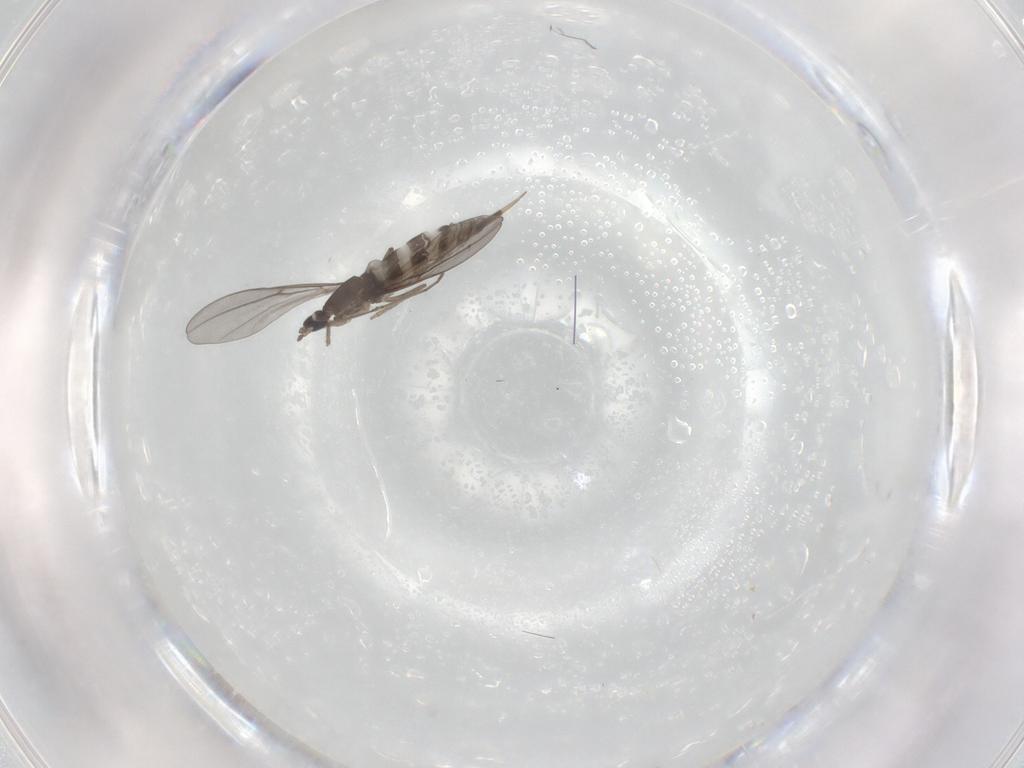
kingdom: Animalia
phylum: Arthropoda
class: Insecta
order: Diptera
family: Cecidomyiidae
